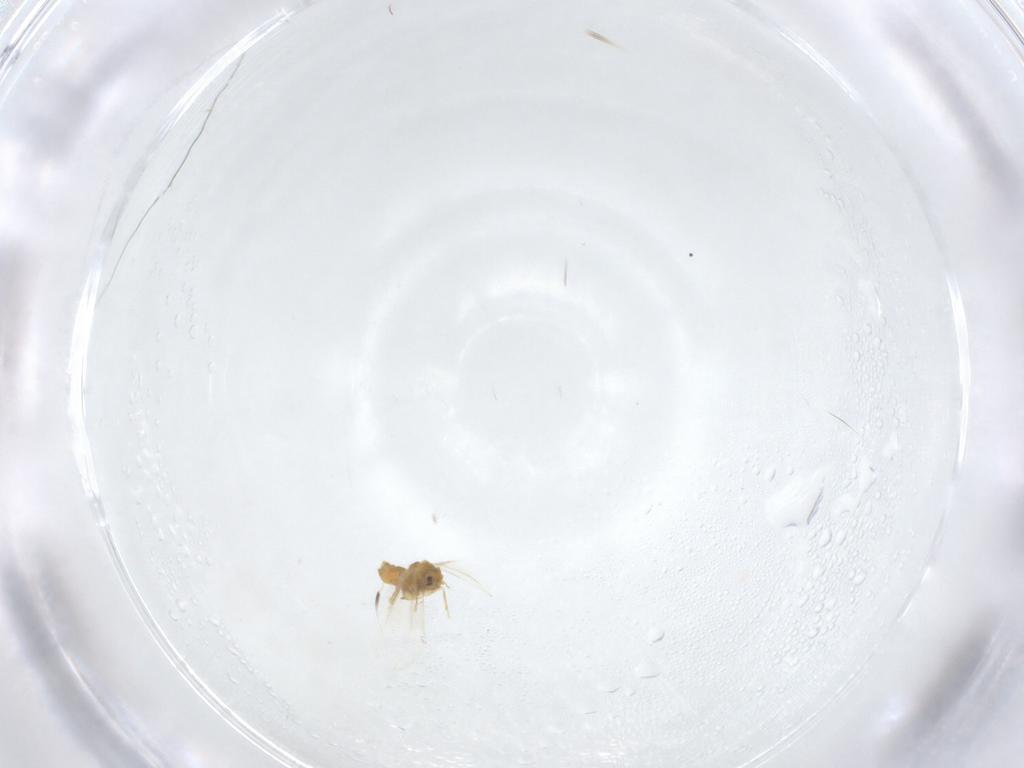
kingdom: Animalia
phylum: Arthropoda
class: Insecta
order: Hemiptera
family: Aleyrodidae
